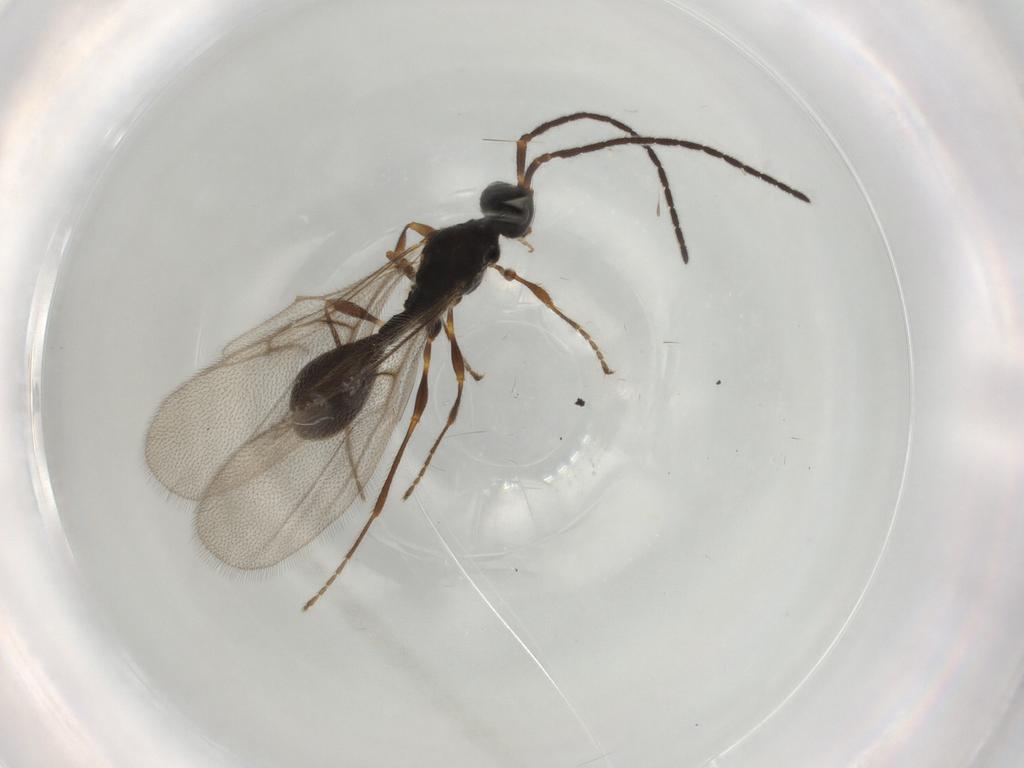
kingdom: Animalia
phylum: Arthropoda
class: Insecta
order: Hymenoptera
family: Diapriidae
